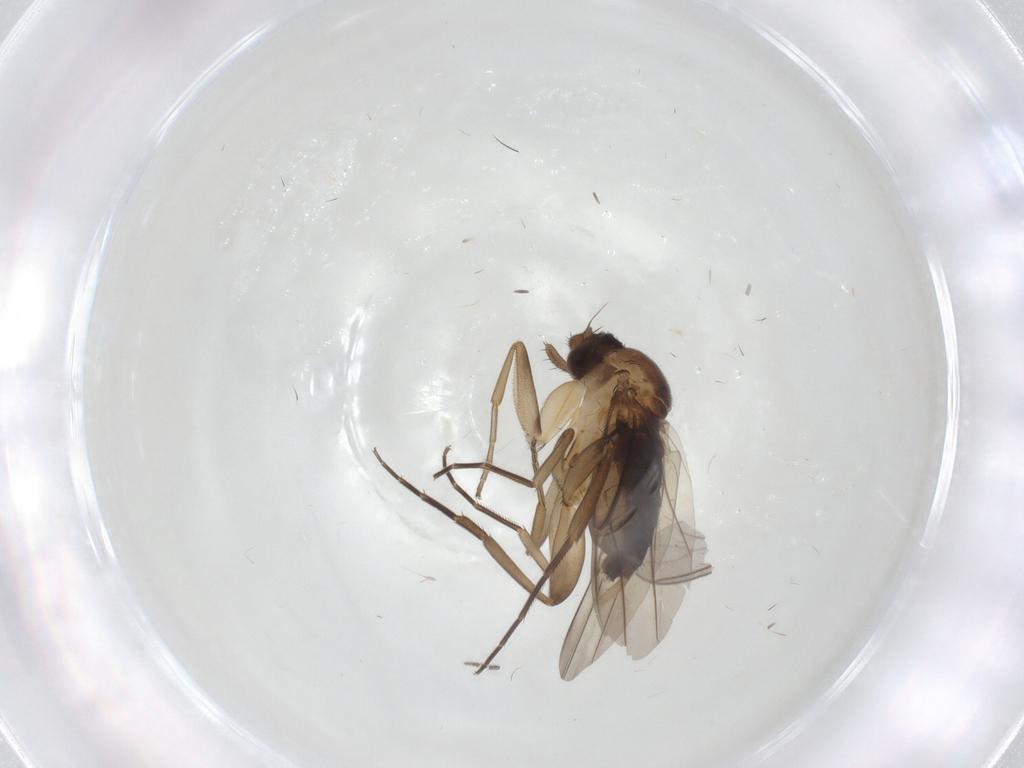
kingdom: Animalia
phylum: Arthropoda
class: Insecta
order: Diptera
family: Phoridae
